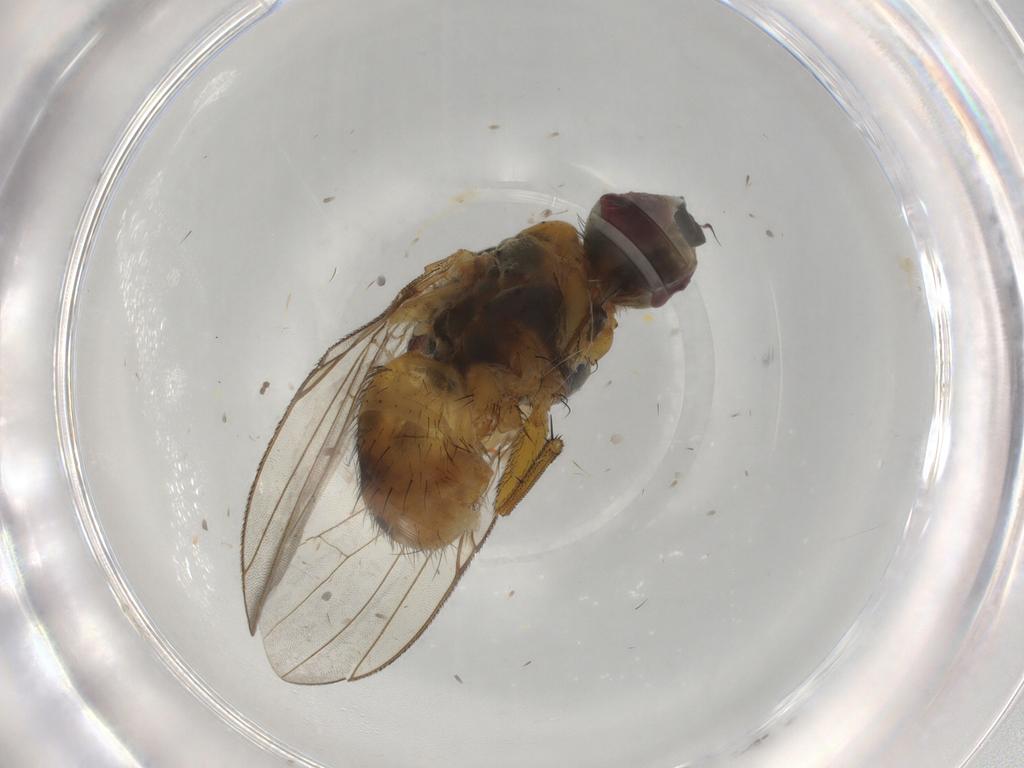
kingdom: Animalia
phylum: Arthropoda
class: Insecta
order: Diptera
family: Muscidae
